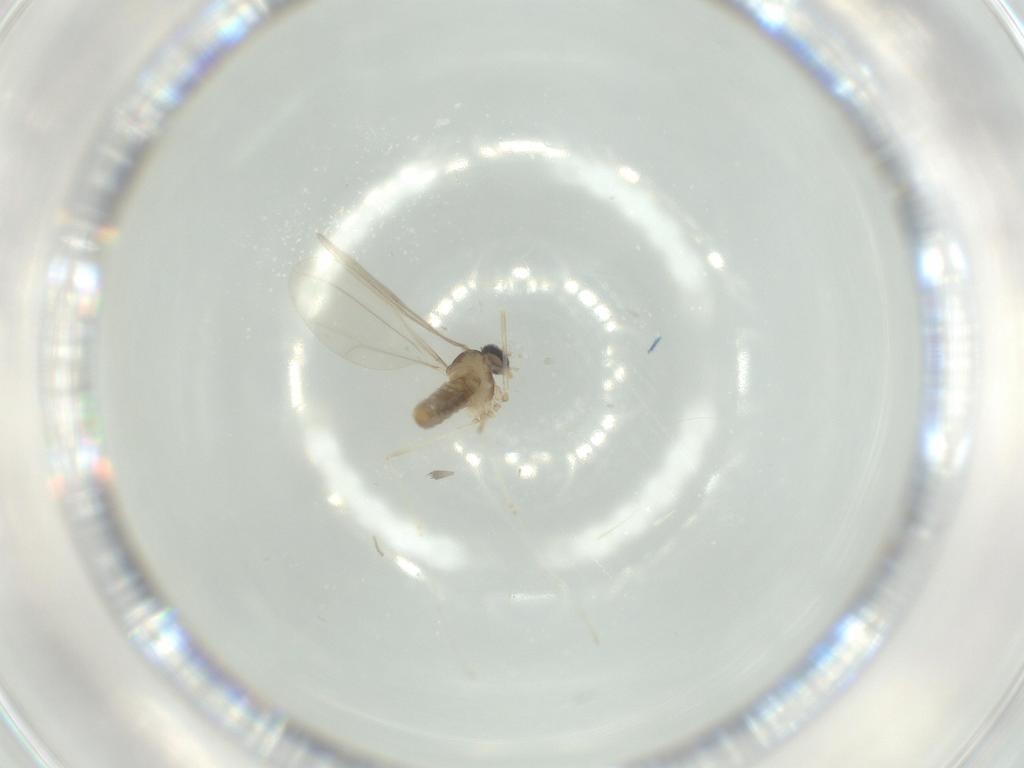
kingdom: Animalia
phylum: Arthropoda
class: Insecta
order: Diptera
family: Cecidomyiidae
